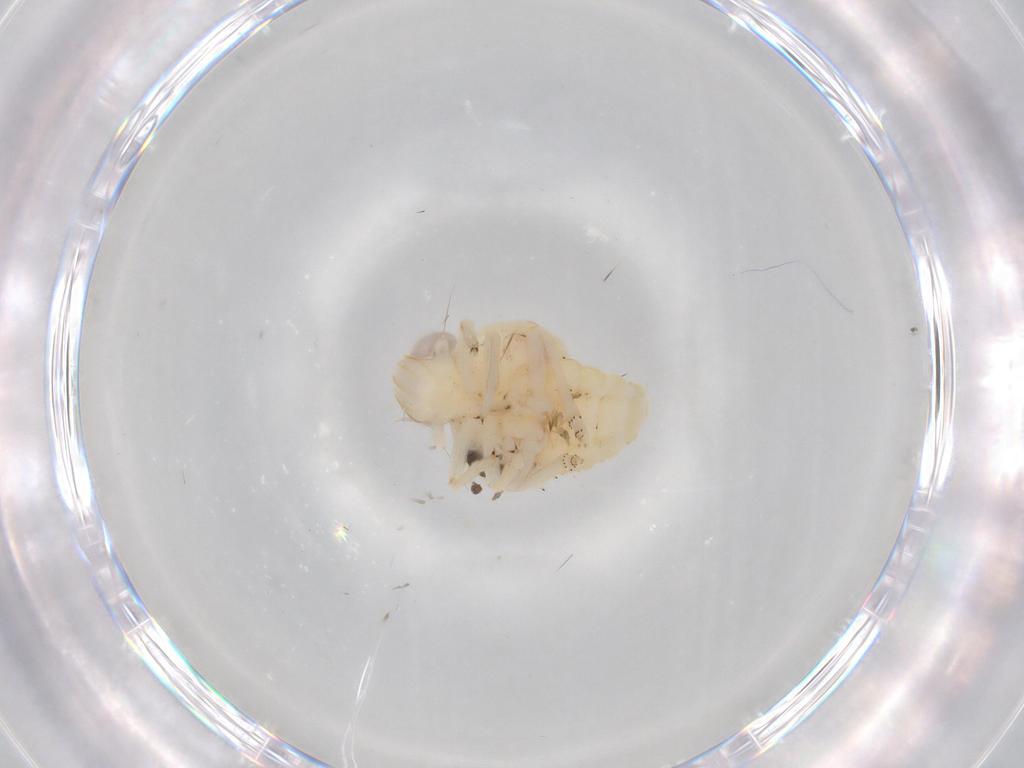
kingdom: Animalia
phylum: Arthropoda
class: Insecta
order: Hemiptera
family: Nogodinidae
